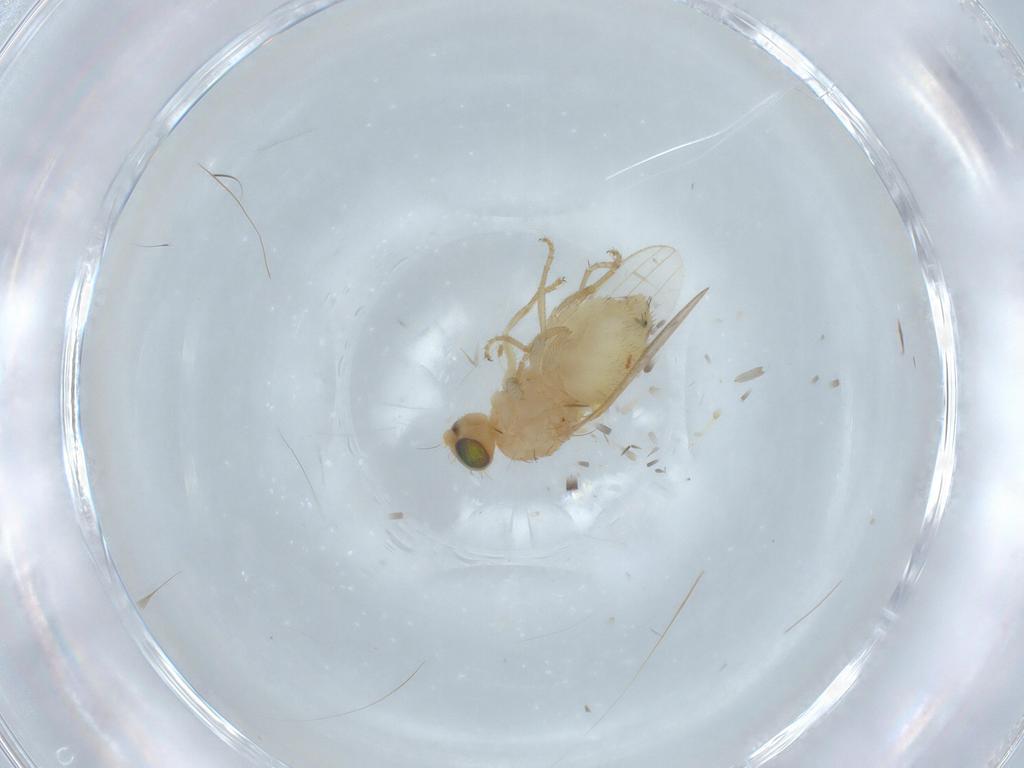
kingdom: Animalia
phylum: Arthropoda
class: Insecta
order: Diptera
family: Chyromyidae
